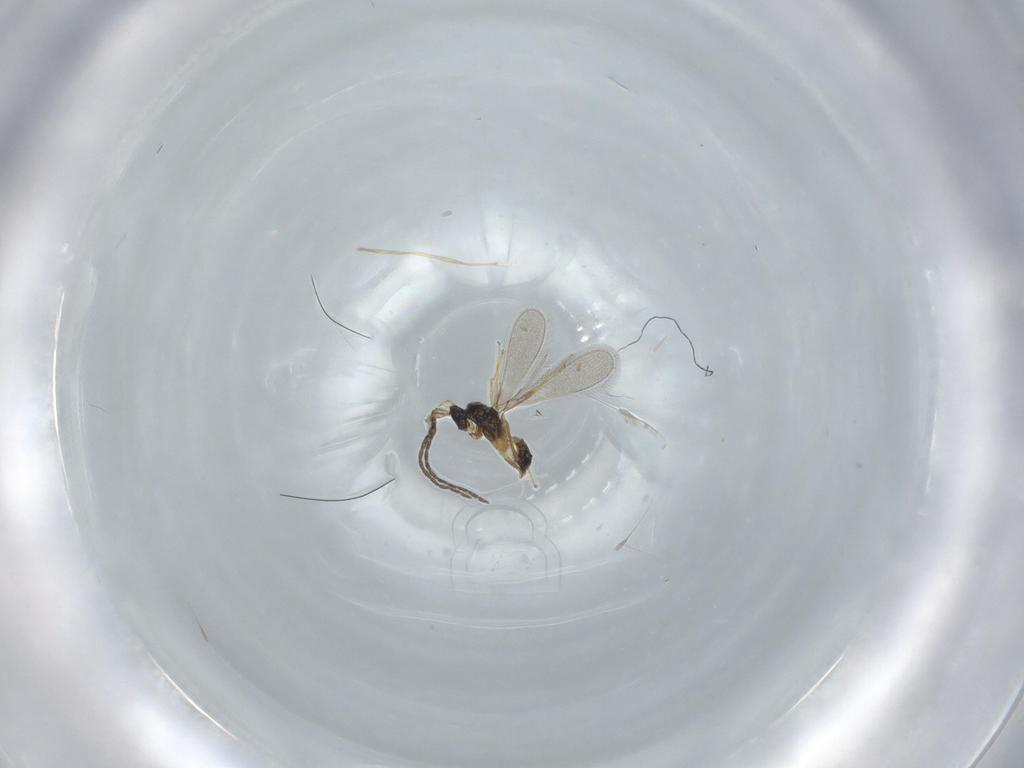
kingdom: Animalia
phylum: Arthropoda
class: Insecta
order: Hymenoptera
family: Mymaridae
